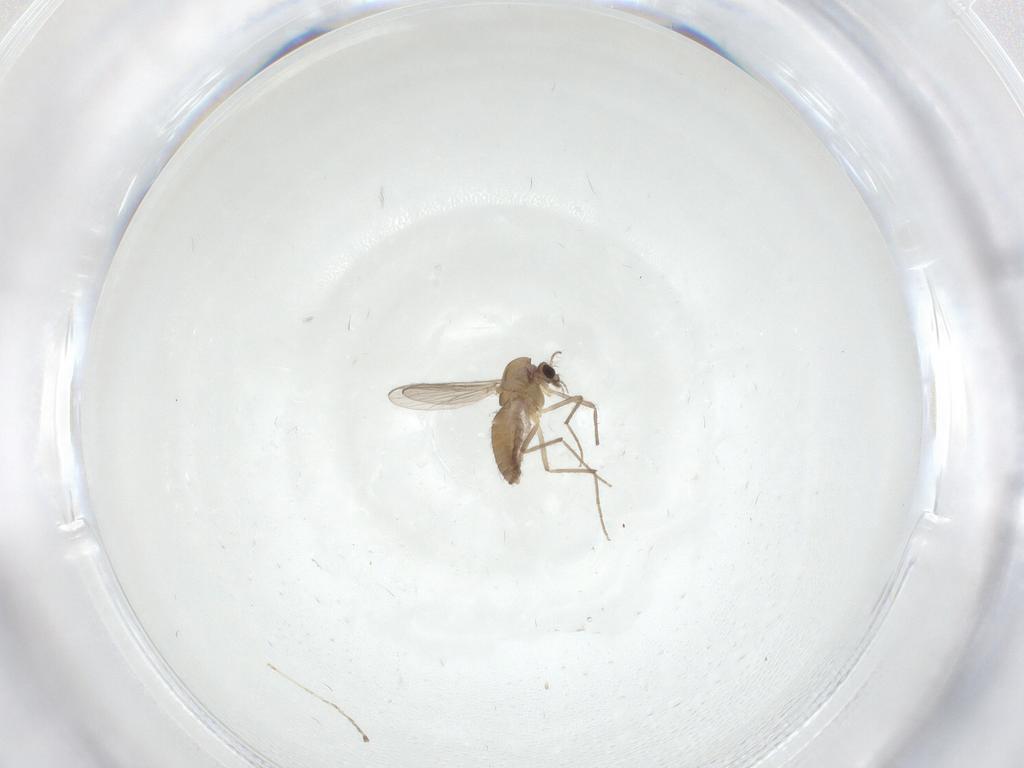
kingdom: Animalia
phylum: Arthropoda
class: Insecta
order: Diptera
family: Chironomidae
